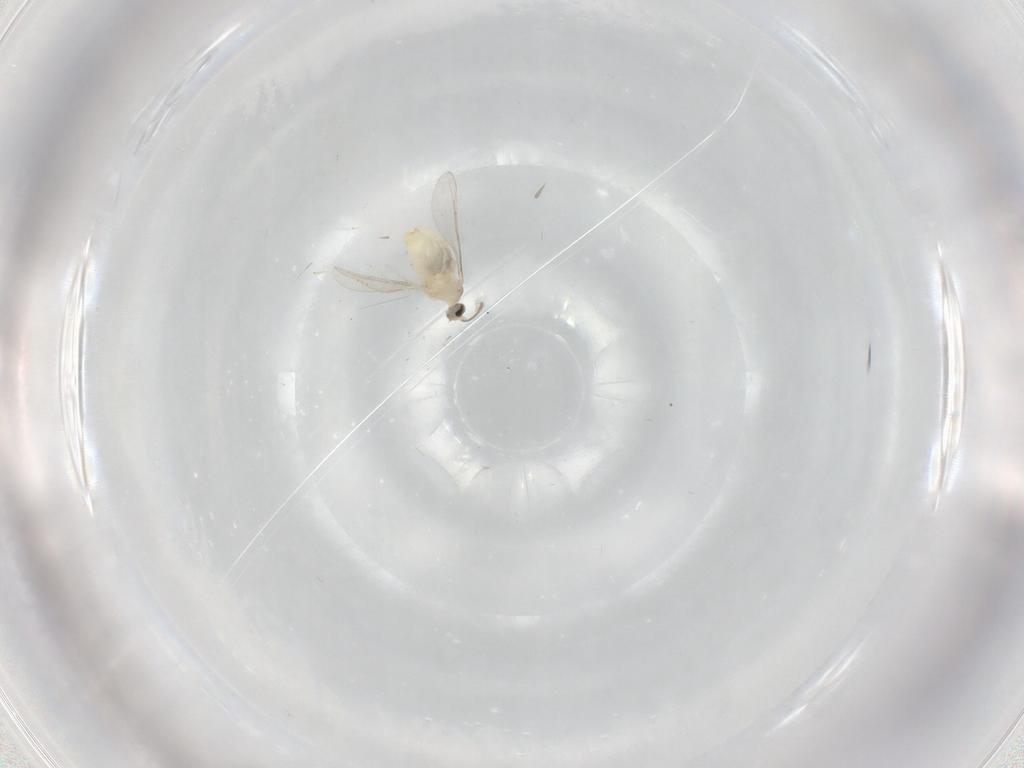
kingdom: Animalia
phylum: Arthropoda
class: Insecta
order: Diptera
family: Cecidomyiidae
